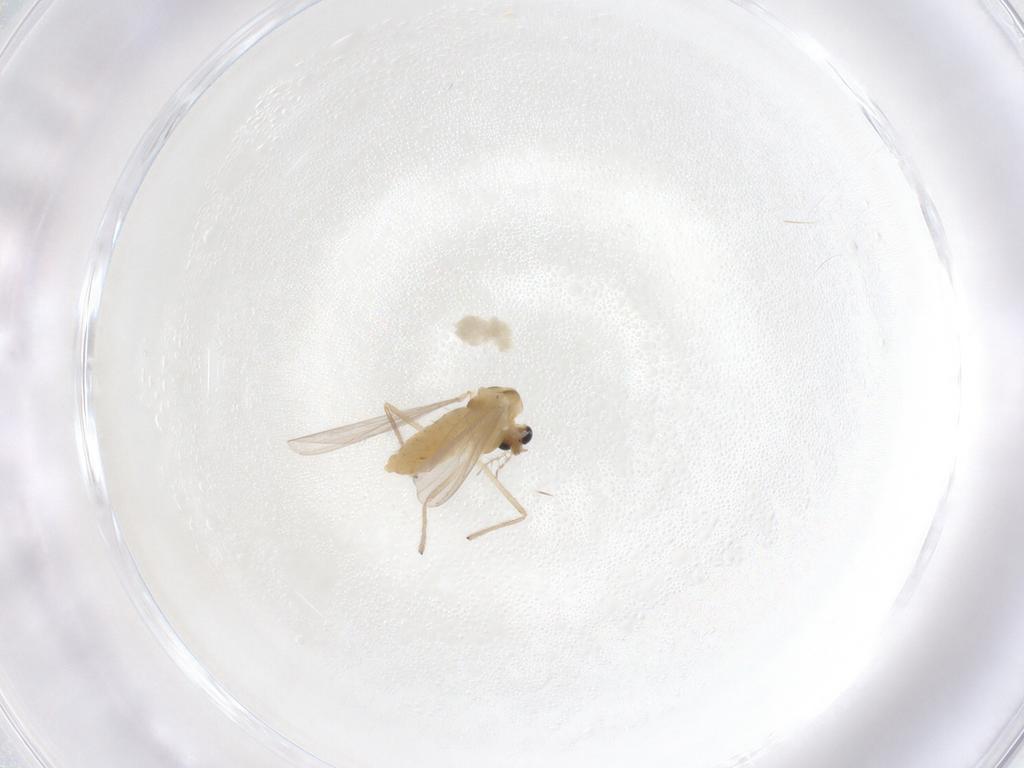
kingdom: Animalia
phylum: Arthropoda
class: Insecta
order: Diptera
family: Chironomidae
